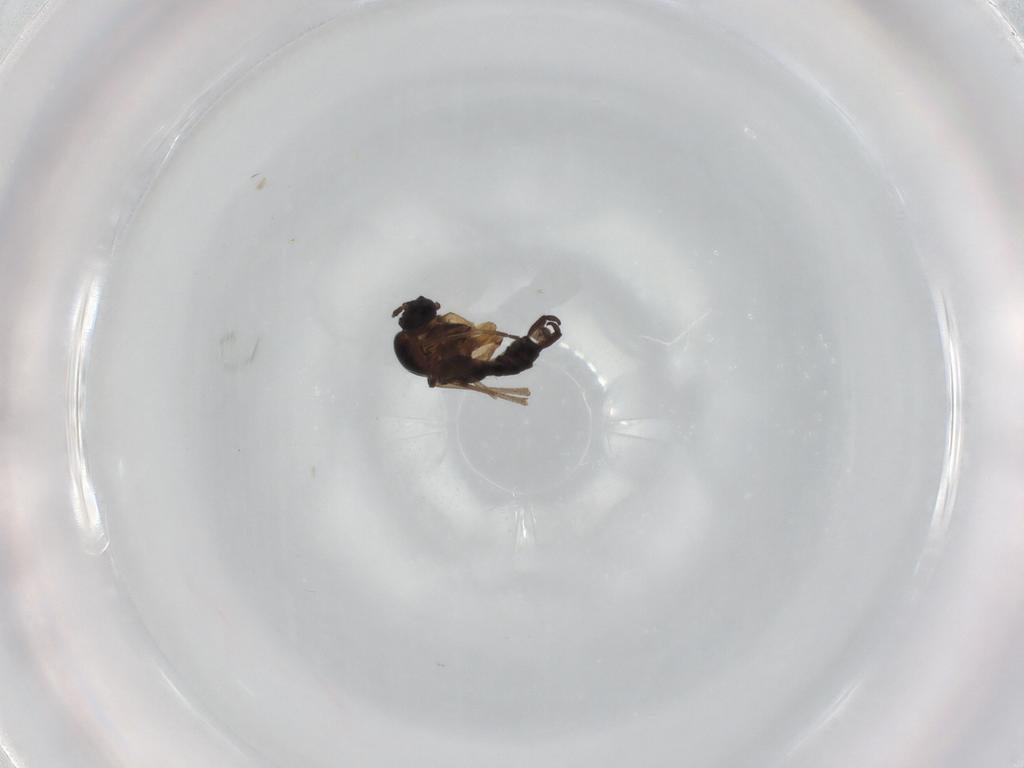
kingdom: Animalia
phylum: Arthropoda
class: Insecta
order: Diptera
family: Sciaridae
